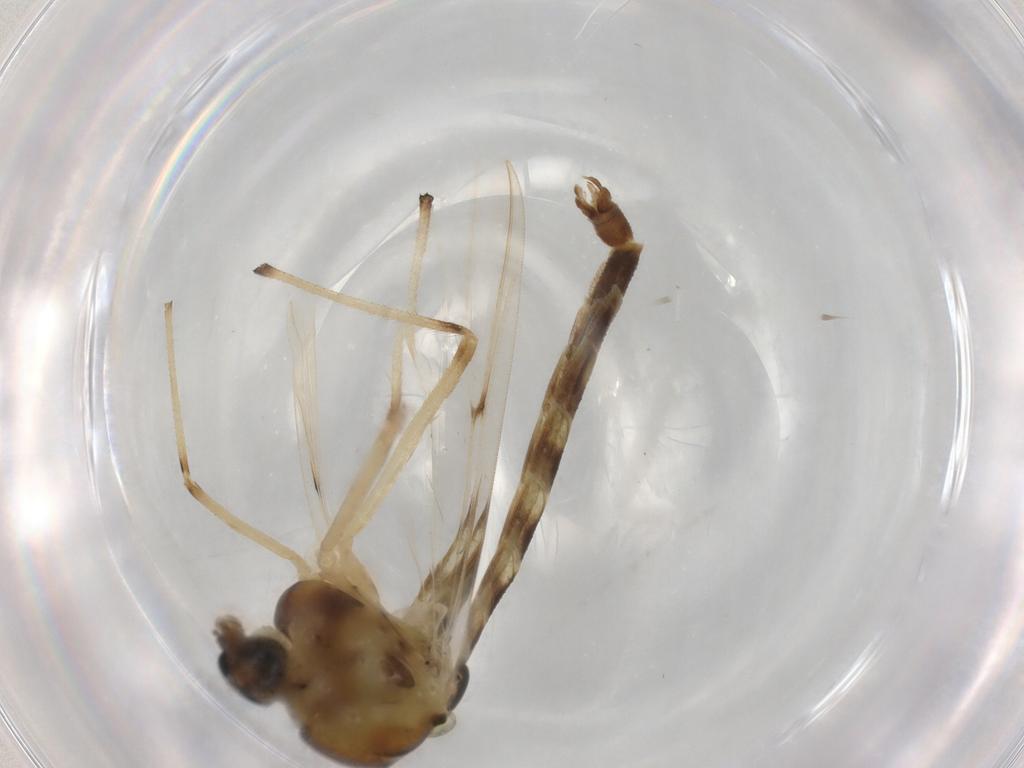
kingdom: Animalia
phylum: Arthropoda
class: Insecta
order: Diptera
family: Ceratopogonidae
